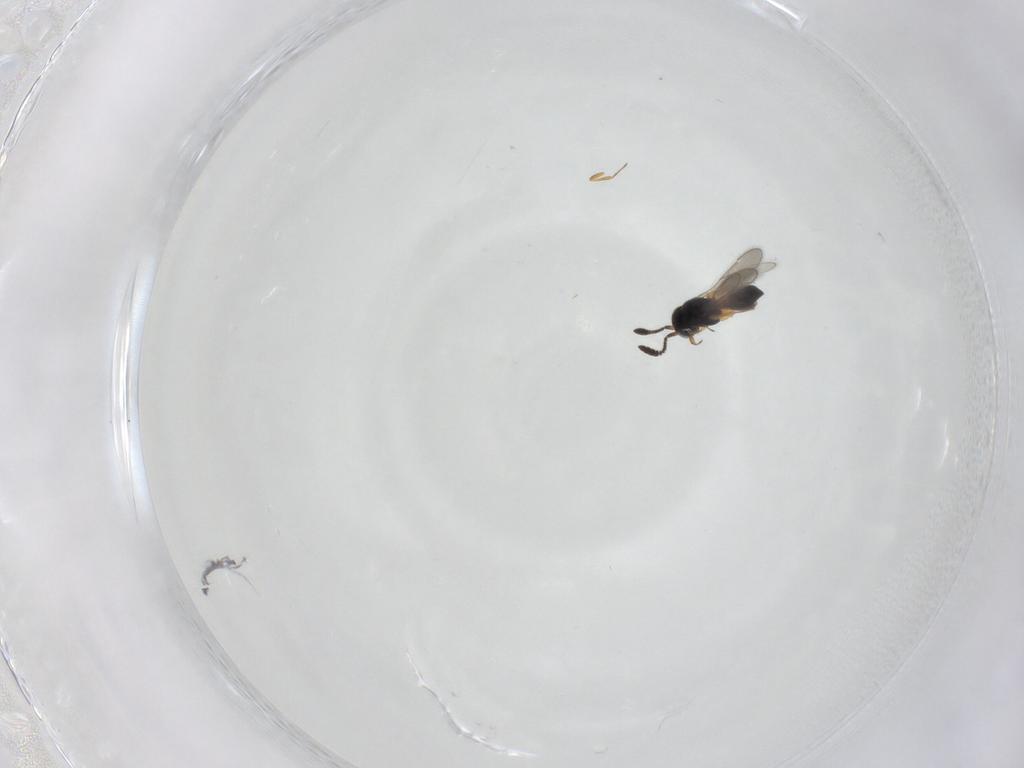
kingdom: Animalia
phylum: Arthropoda
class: Insecta
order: Hymenoptera
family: Scelionidae
